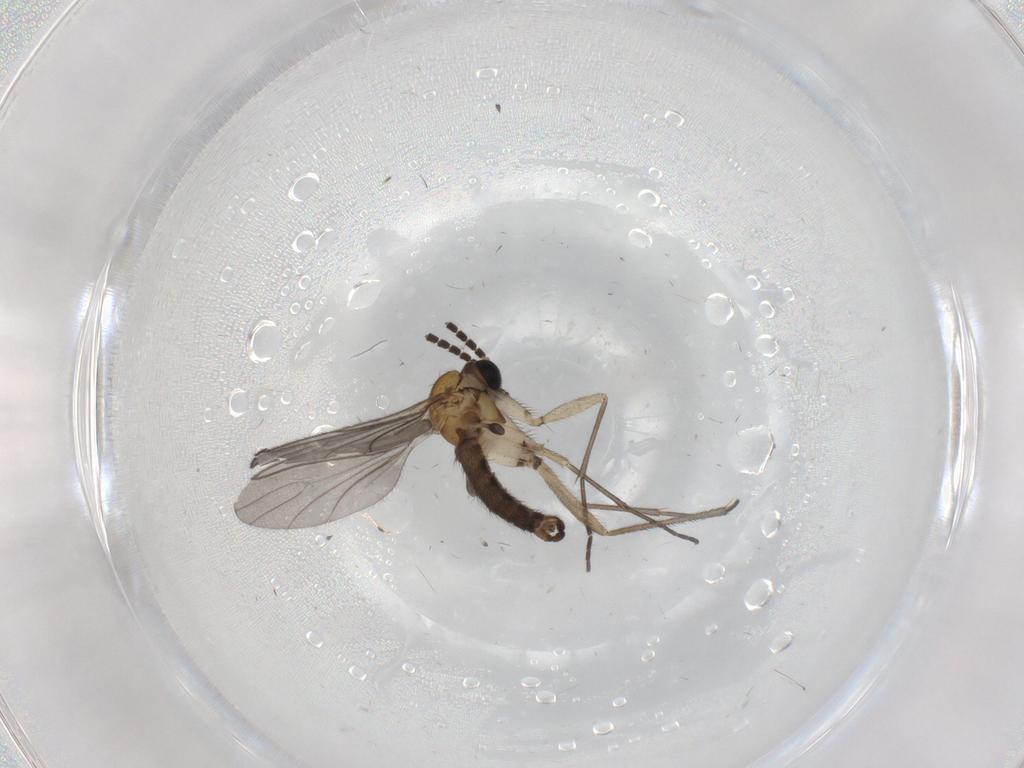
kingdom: Animalia
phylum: Arthropoda
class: Insecta
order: Diptera
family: Sciaridae
